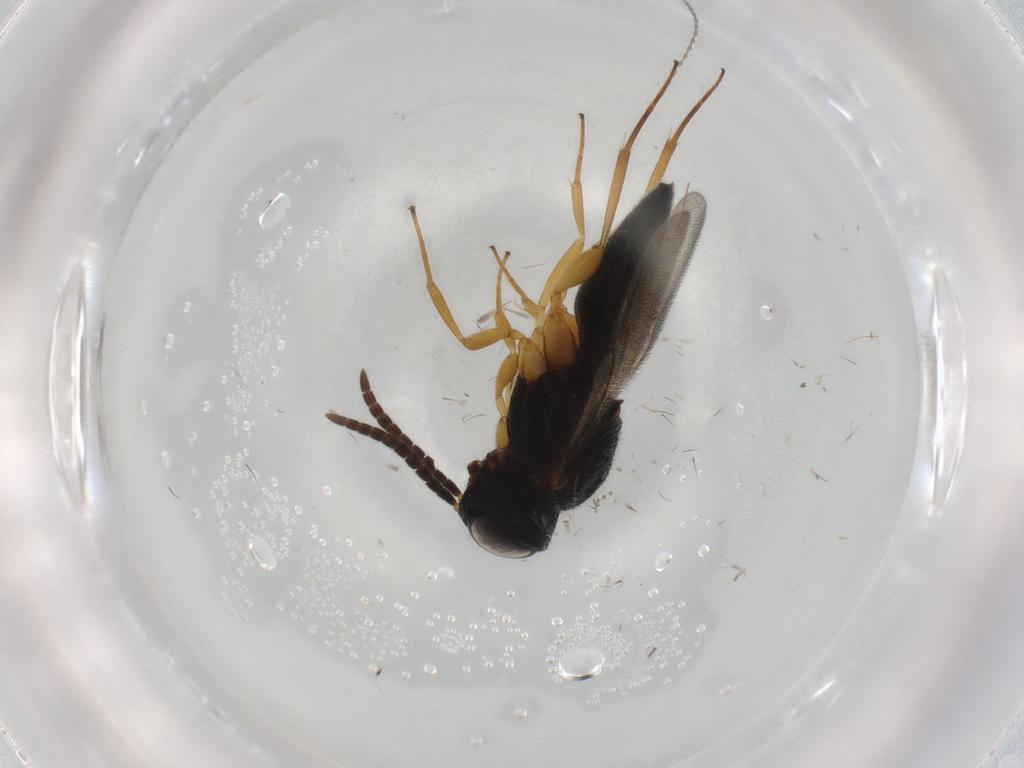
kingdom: Animalia
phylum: Arthropoda
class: Insecta
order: Hymenoptera
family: Scelionidae
